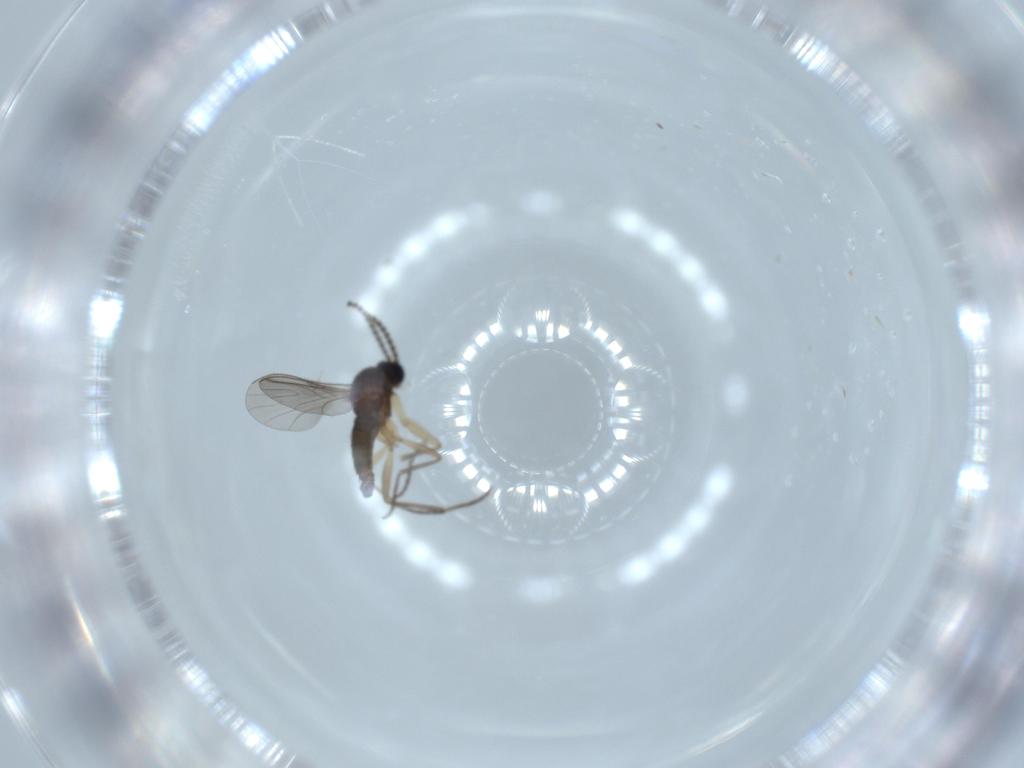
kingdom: Animalia
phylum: Arthropoda
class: Insecta
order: Diptera
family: Sciaridae
